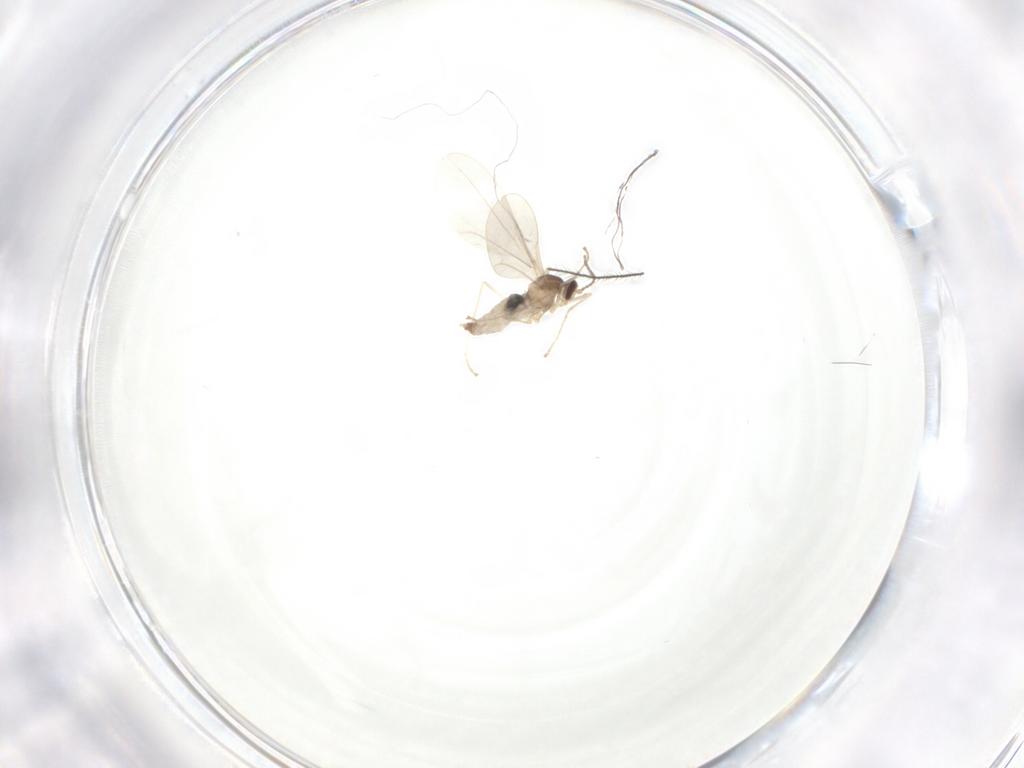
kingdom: Animalia
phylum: Arthropoda
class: Insecta
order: Diptera
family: Cecidomyiidae
